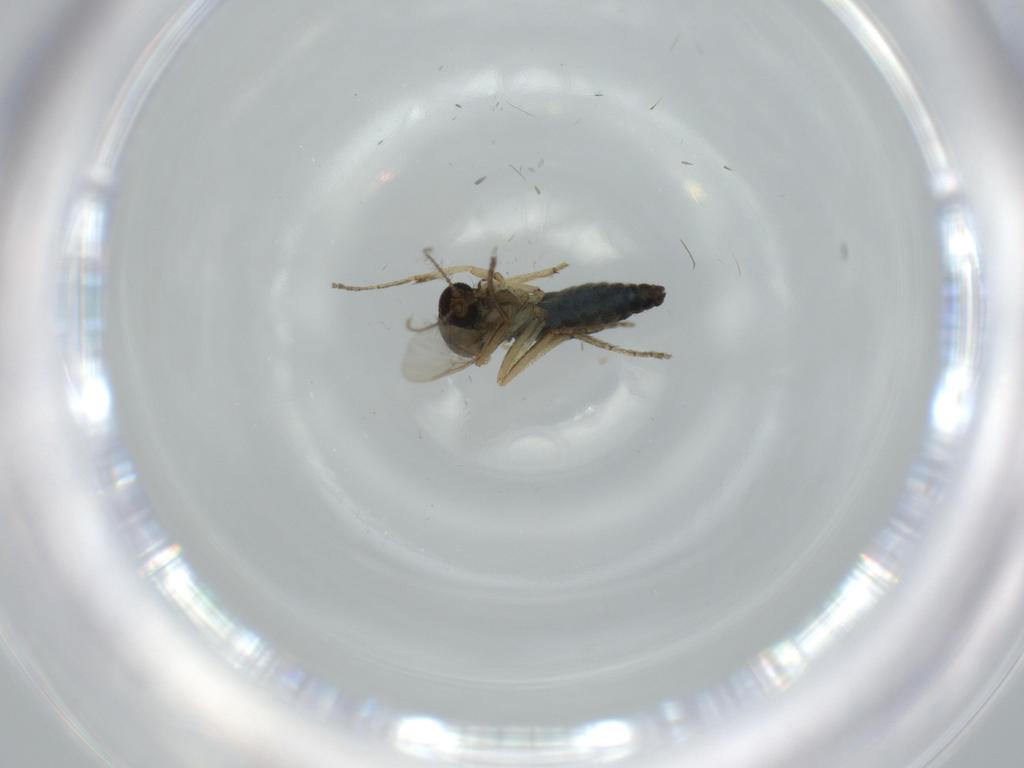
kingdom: Animalia
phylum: Arthropoda
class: Insecta
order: Diptera
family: Ceratopogonidae
